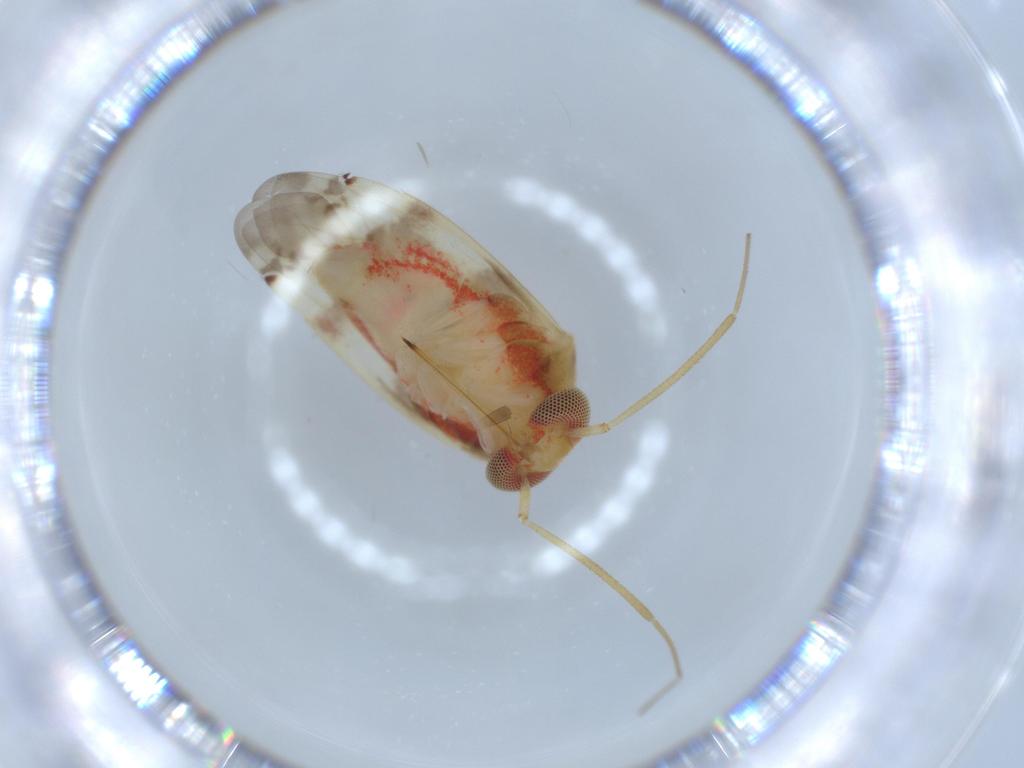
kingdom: Animalia
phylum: Arthropoda
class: Insecta
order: Hemiptera
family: Miridae
